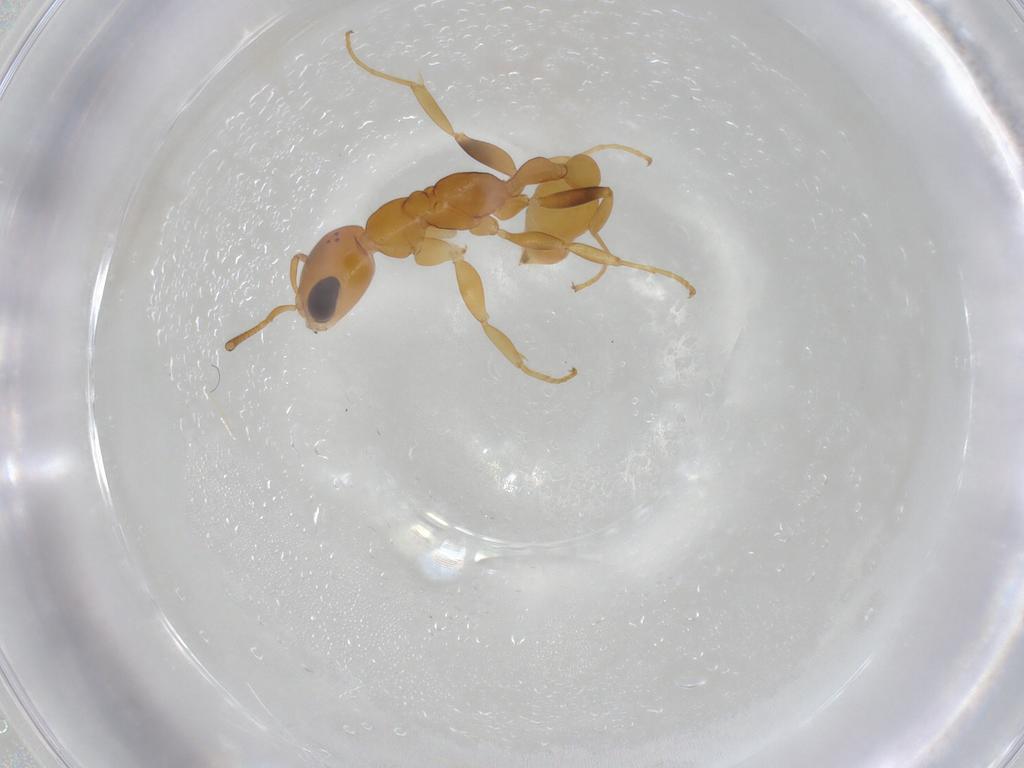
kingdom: Animalia
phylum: Arthropoda
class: Insecta
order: Hymenoptera
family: Formicidae
